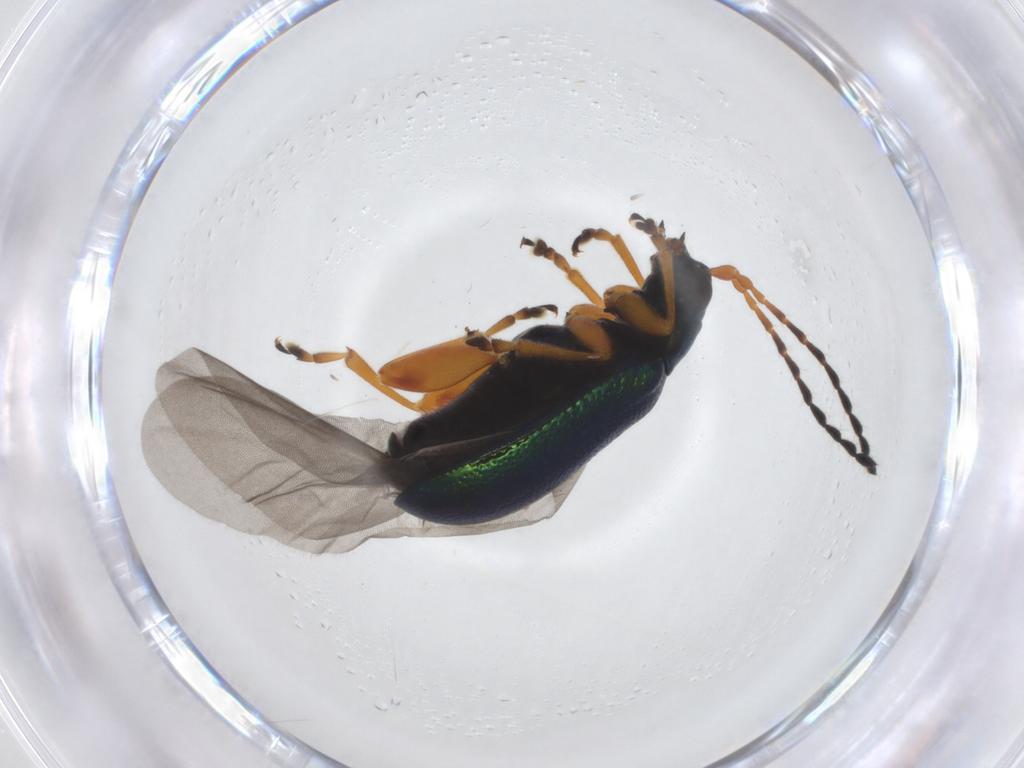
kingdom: Animalia
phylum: Arthropoda
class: Insecta
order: Coleoptera
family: Chrysomelidae
